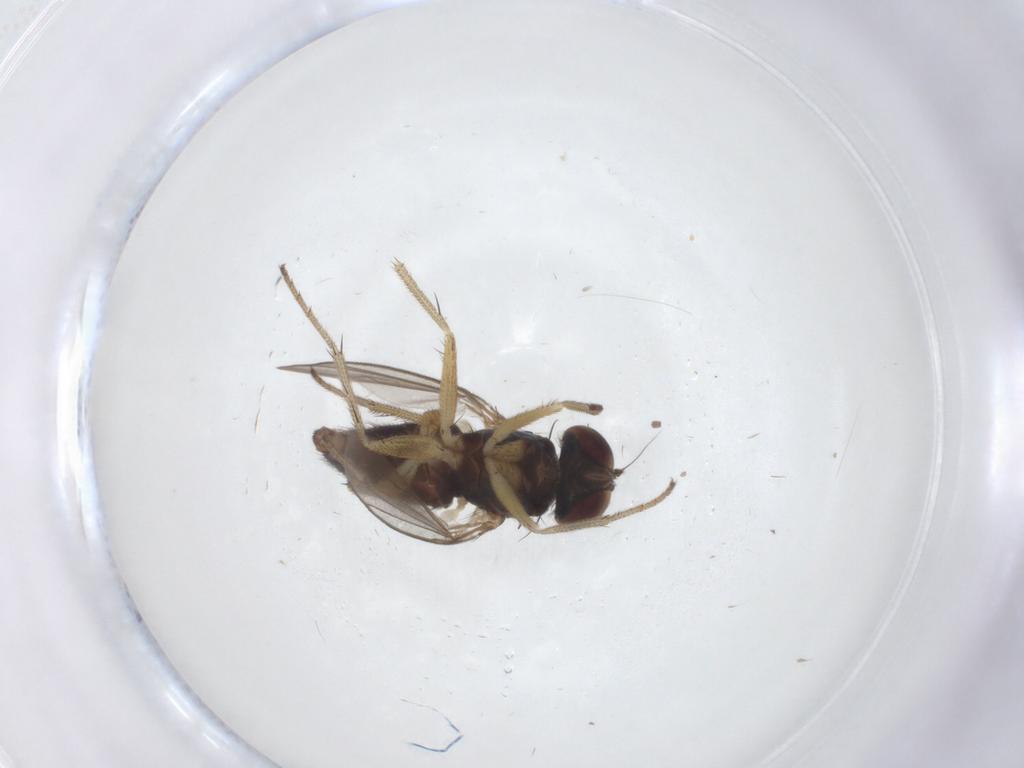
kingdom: Animalia
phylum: Arthropoda
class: Insecta
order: Diptera
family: Dolichopodidae
